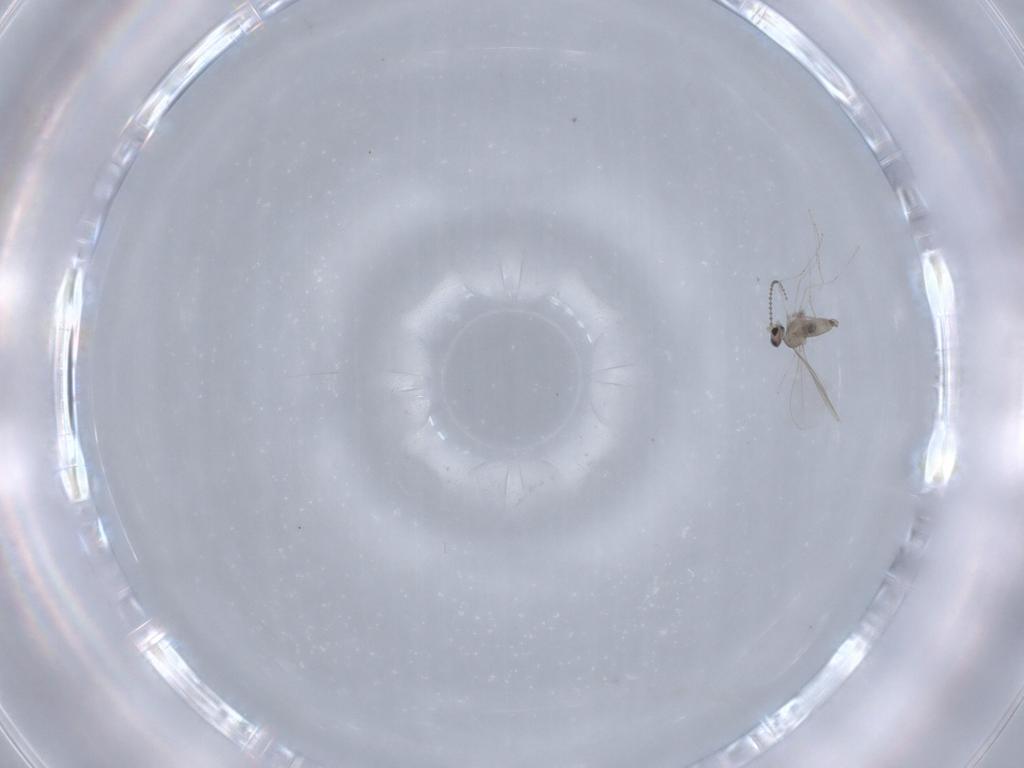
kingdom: Animalia
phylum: Arthropoda
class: Insecta
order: Diptera
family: Cecidomyiidae
